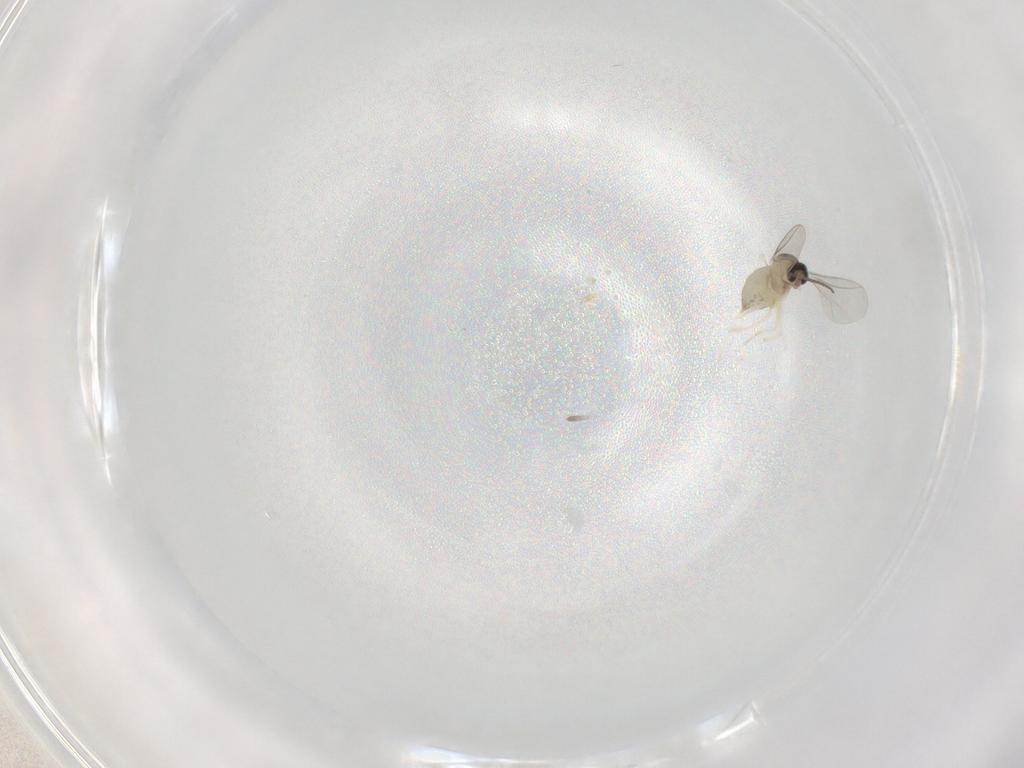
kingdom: Animalia
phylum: Arthropoda
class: Insecta
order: Diptera
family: Cecidomyiidae
